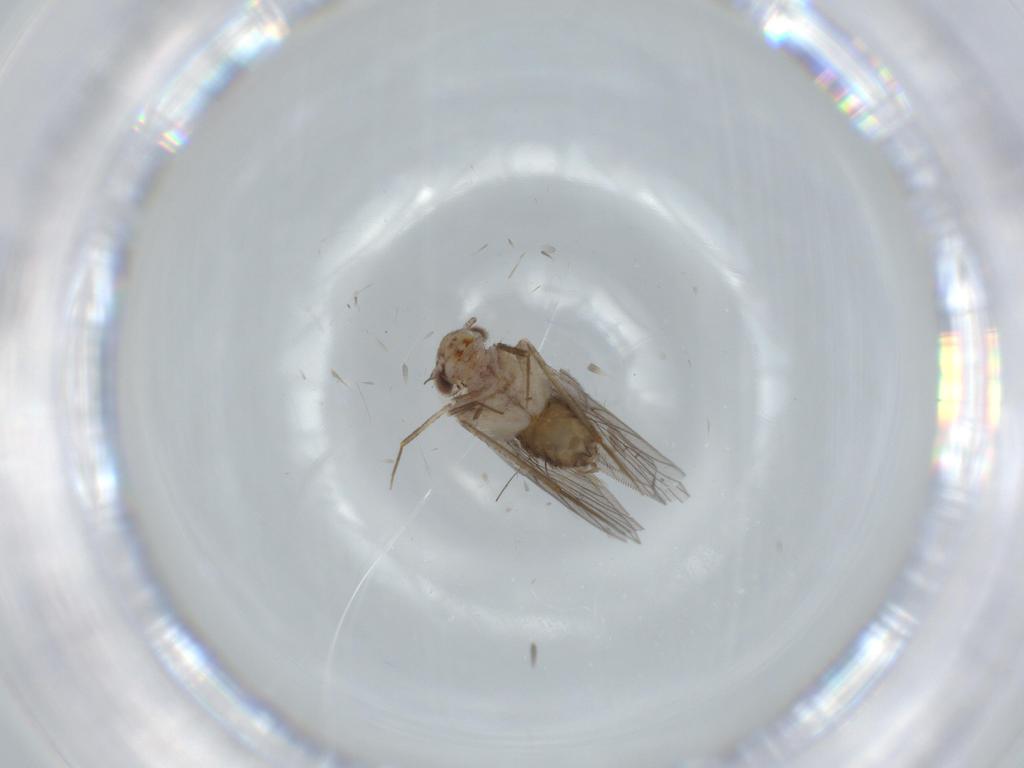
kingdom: Animalia
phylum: Arthropoda
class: Insecta
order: Psocodea
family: Lepidopsocidae
